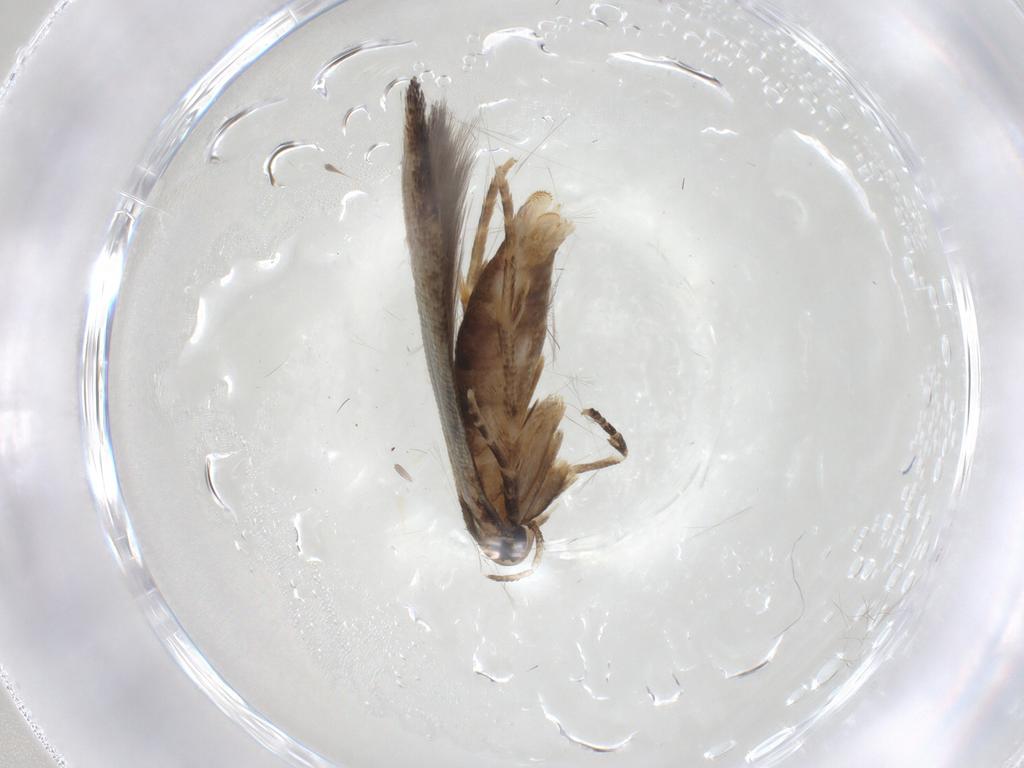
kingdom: Animalia
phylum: Arthropoda
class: Insecta
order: Lepidoptera
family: Cosmopterigidae
